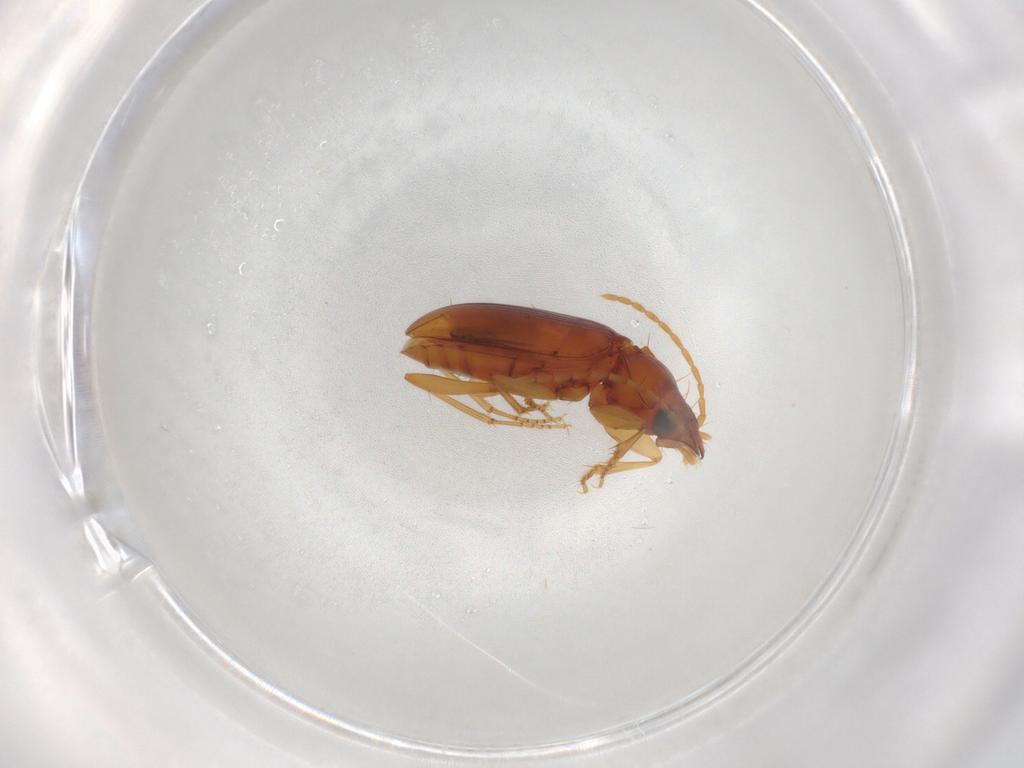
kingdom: Animalia
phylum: Arthropoda
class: Insecta
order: Coleoptera
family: Carabidae
